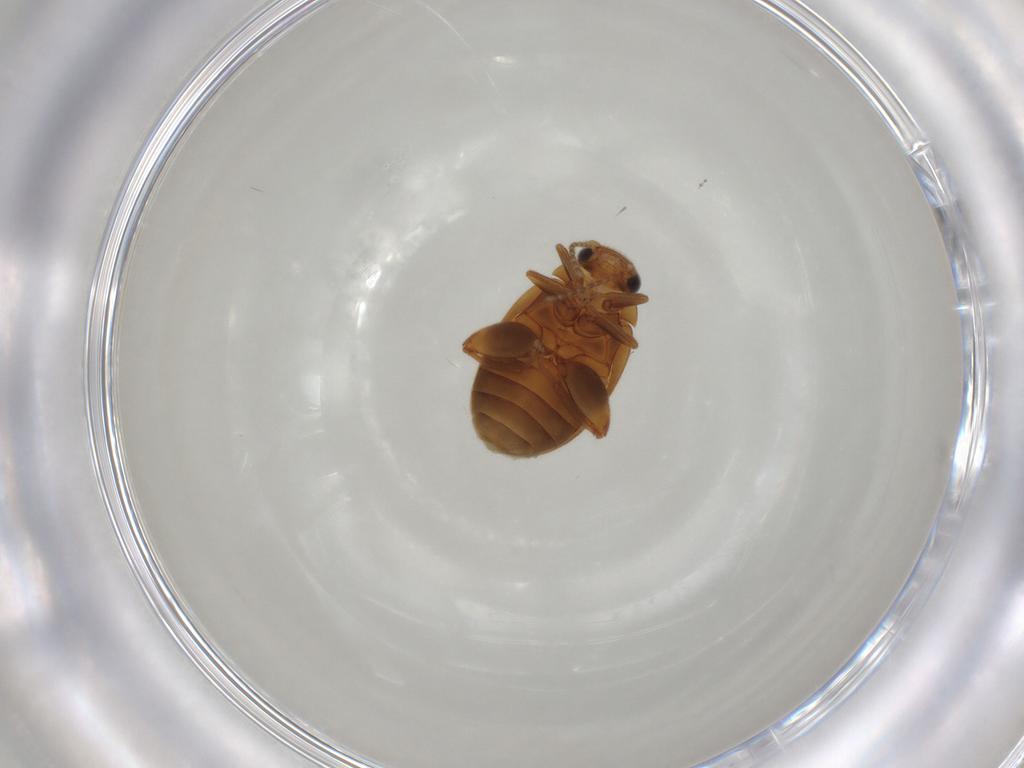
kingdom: Animalia
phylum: Arthropoda
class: Insecta
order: Coleoptera
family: Scirtidae
